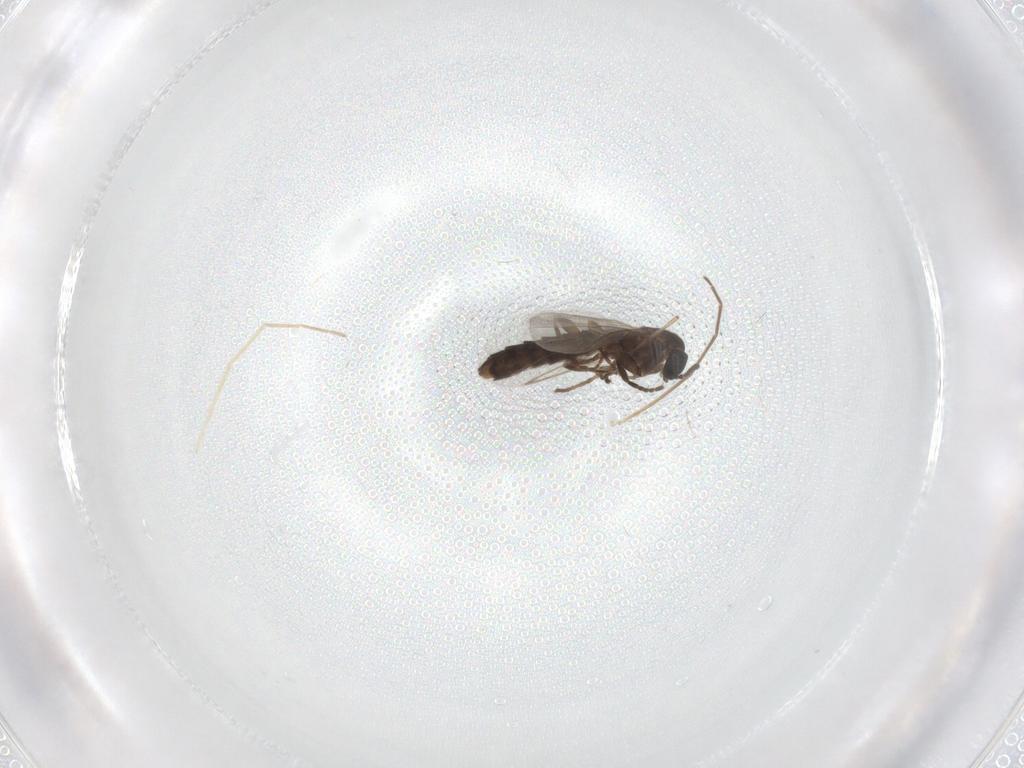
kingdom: Animalia
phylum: Arthropoda
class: Insecta
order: Diptera
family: Chironomidae
